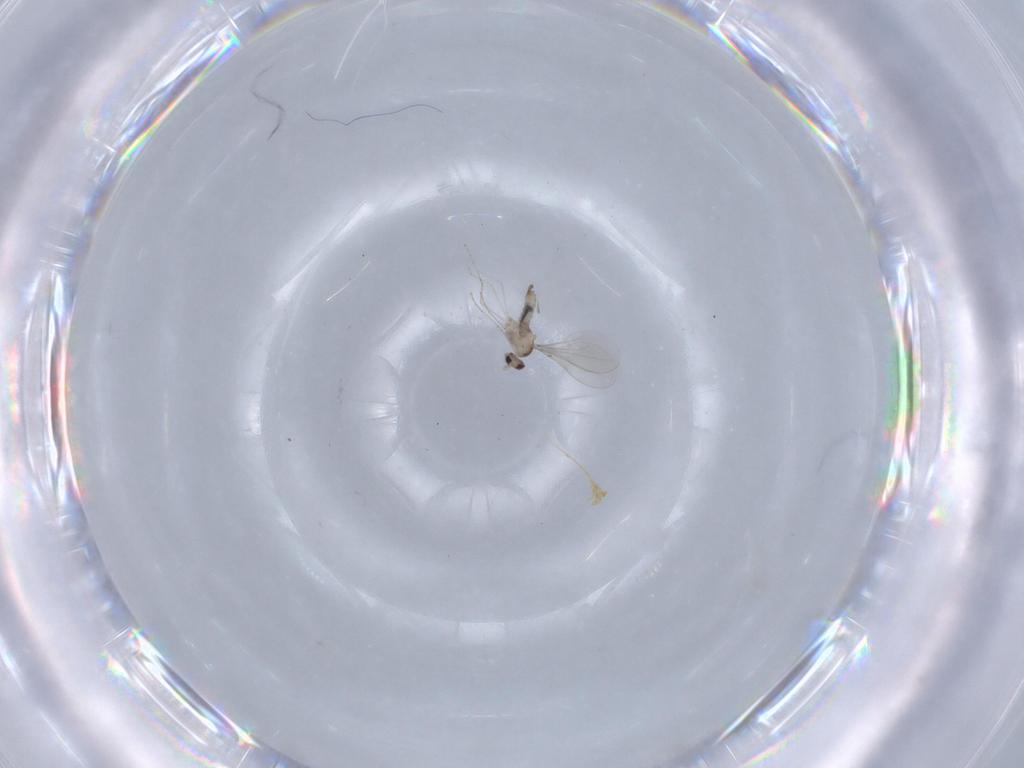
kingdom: Animalia
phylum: Arthropoda
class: Insecta
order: Diptera
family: Cecidomyiidae
